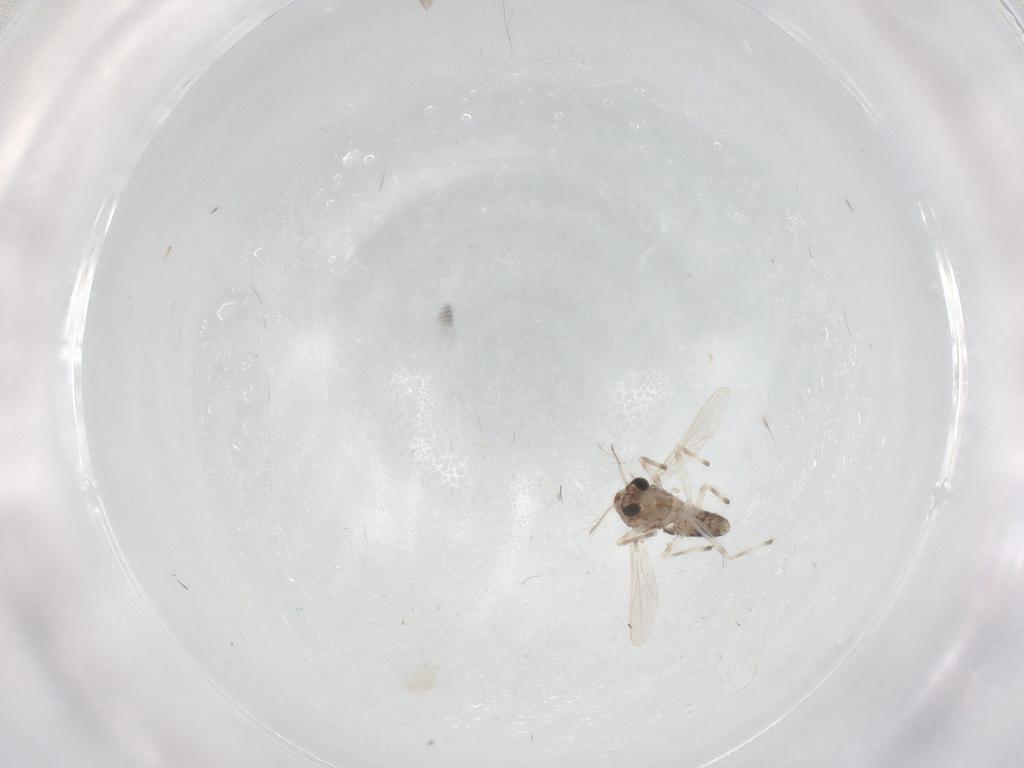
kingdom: Animalia
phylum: Arthropoda
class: Insecta
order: Diptera
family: Chironomidae
